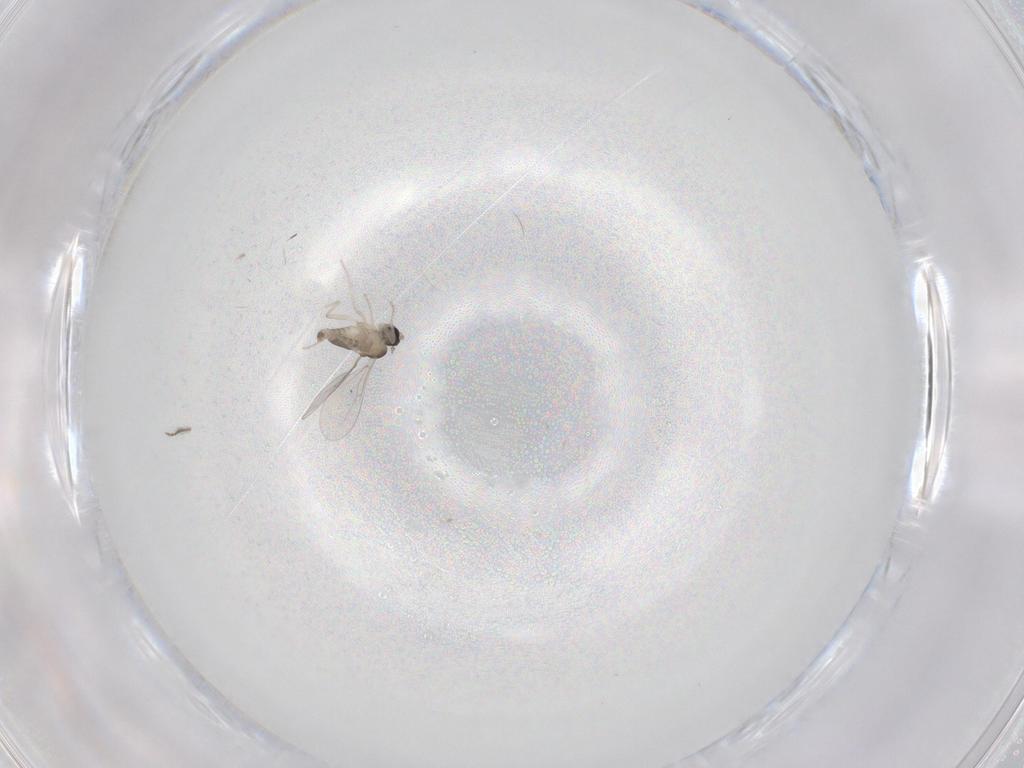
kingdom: Animalia
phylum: Arthropoda
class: Insecta
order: Diptera
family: Cecidomyiidae
